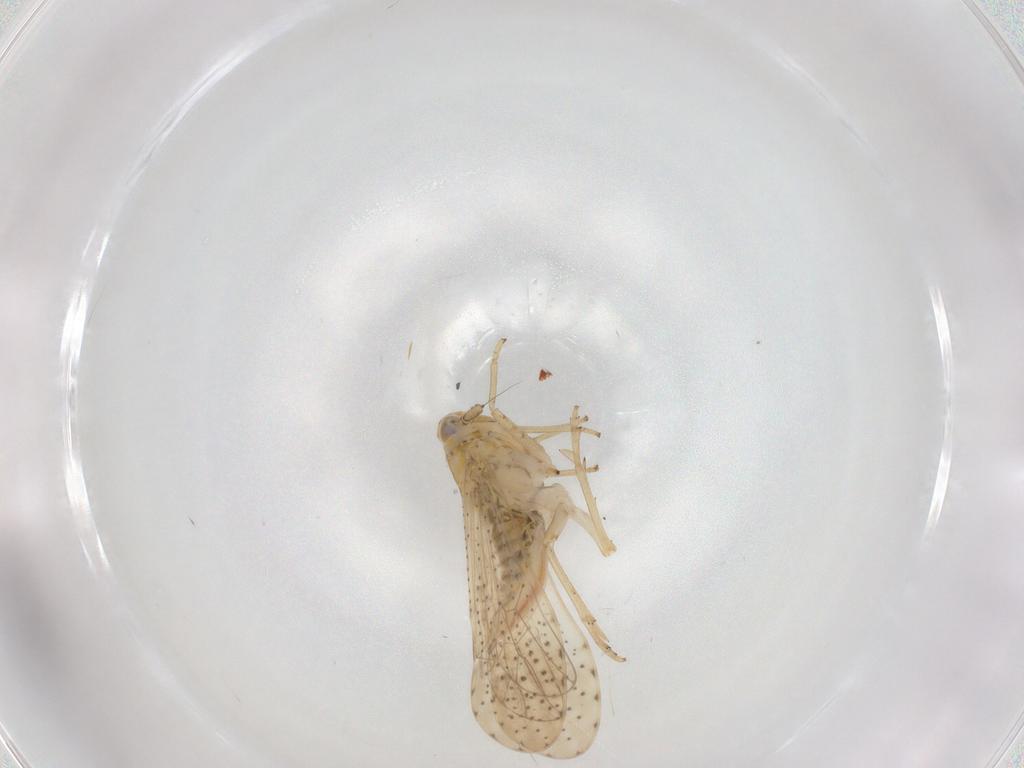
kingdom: Animalia
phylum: Arthropoda
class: Insecta
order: Hemiptera
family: Delphacidae
